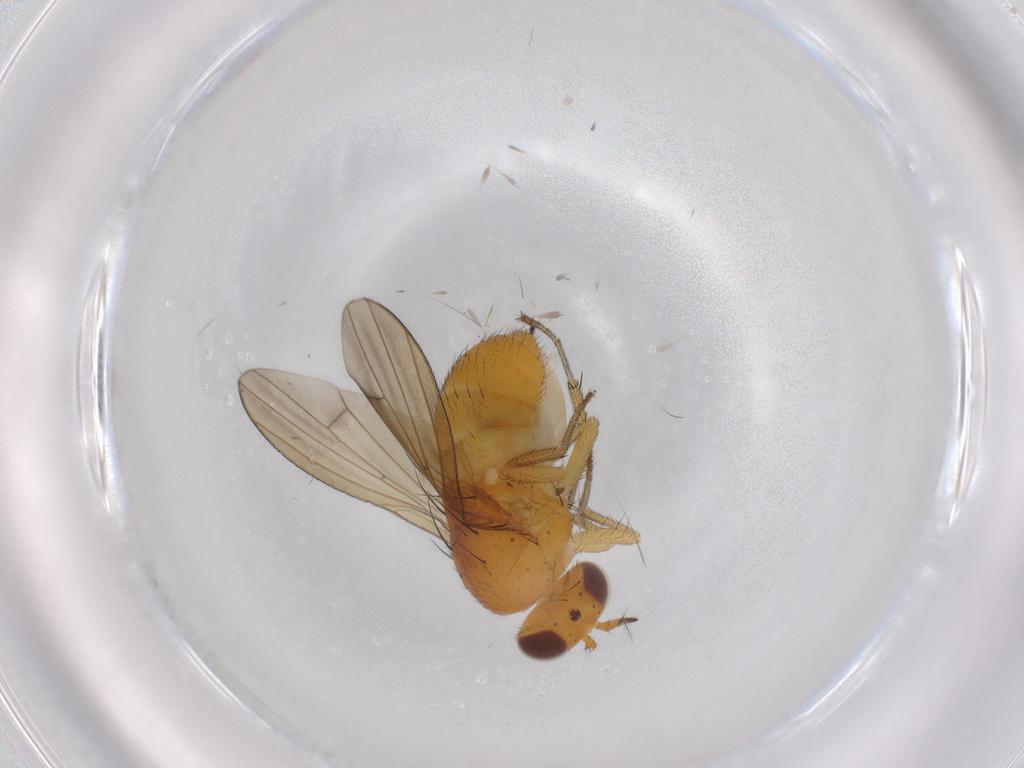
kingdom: Animalia
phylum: Arthropoda
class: Insecta
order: Diptera
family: Lauxaniidae
